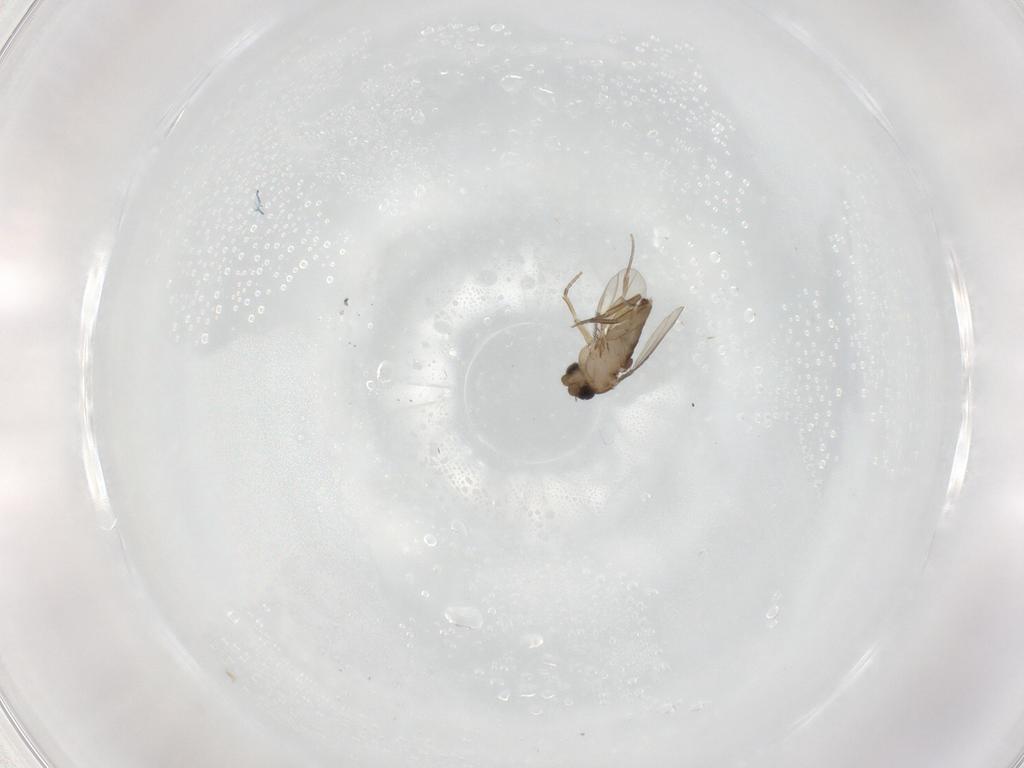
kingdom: Animalia
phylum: Arthropoda
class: Insecta
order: Diptera
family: Phoridae
